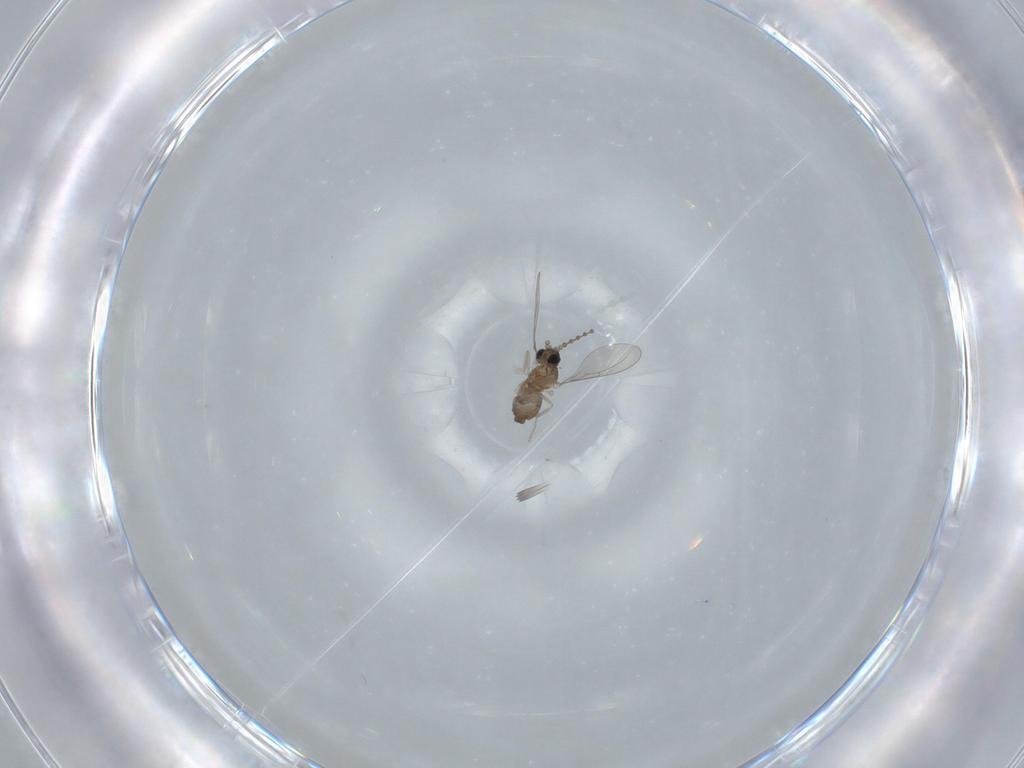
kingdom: Animalia
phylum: Arthropoda
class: Insecta
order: Diptera
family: Cecidomyiidae
